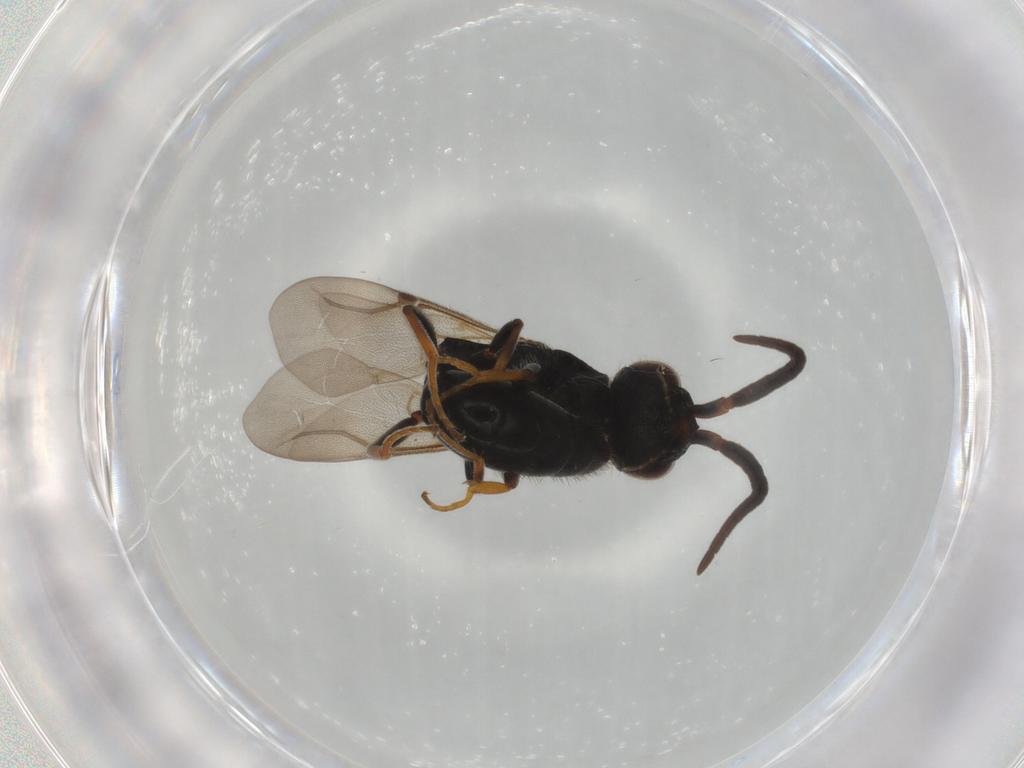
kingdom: Animalia
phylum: Arthropoda
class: Insecta
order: Hymenoptera
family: Bethylidae
